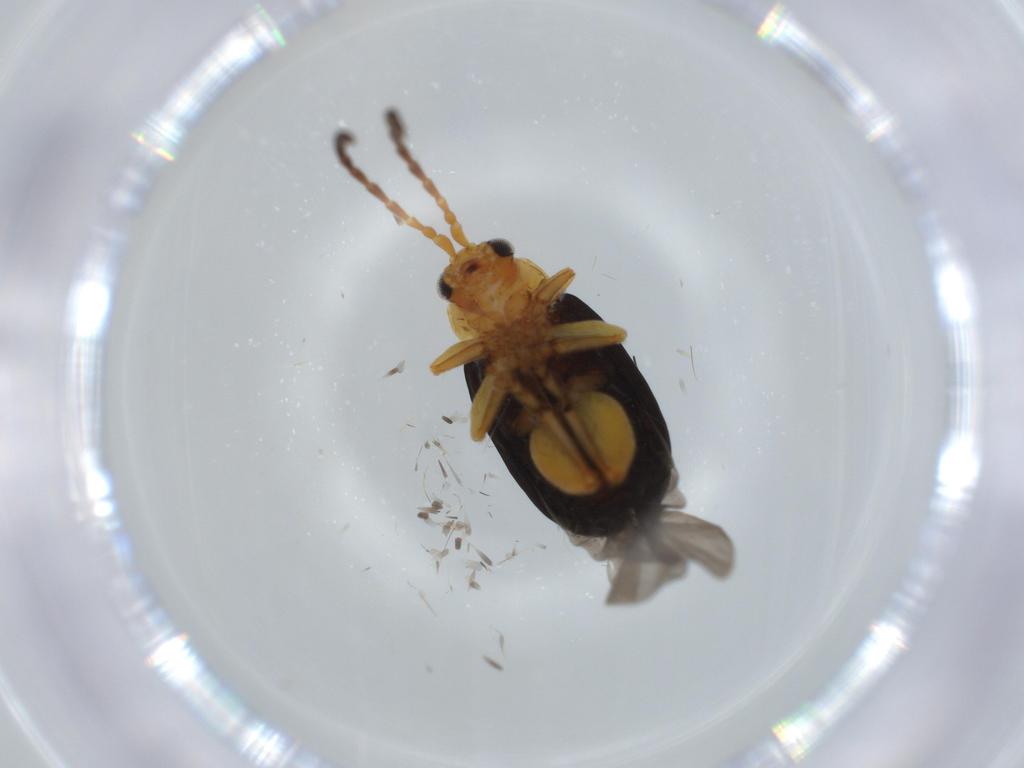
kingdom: Animalia
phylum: Arthropoda
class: Insecta
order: Coleoptera
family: Chrysomelidae
